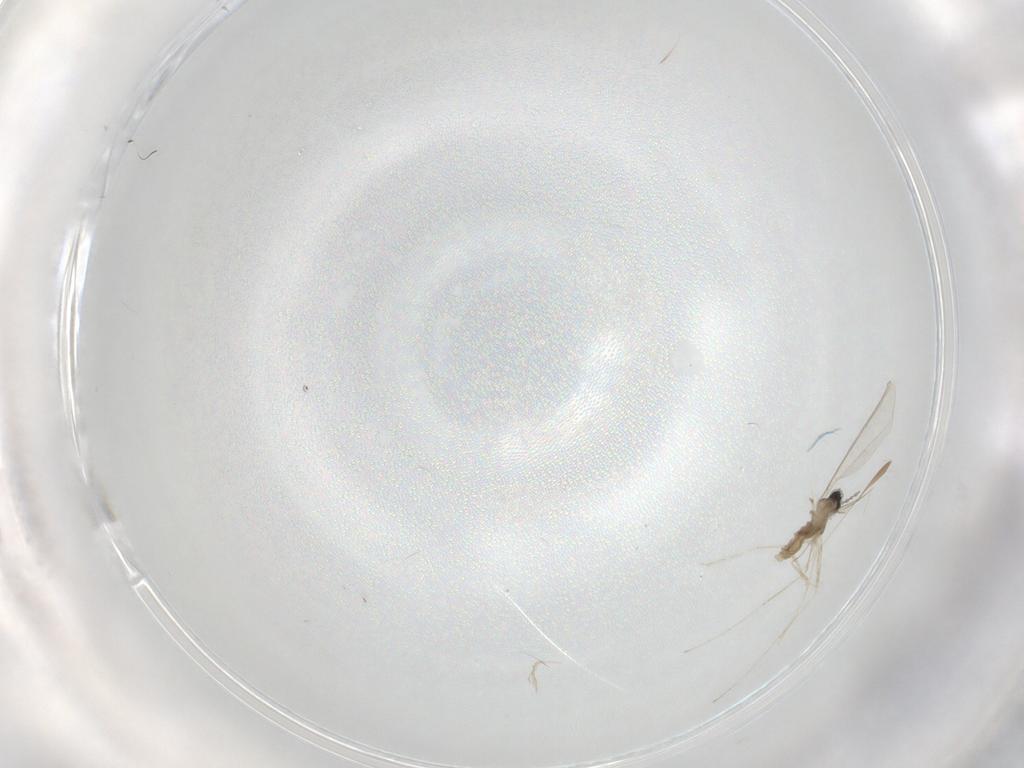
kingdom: Animalia
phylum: Arthropoda
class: Insecta
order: Diptera
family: Cecidomyiidae
